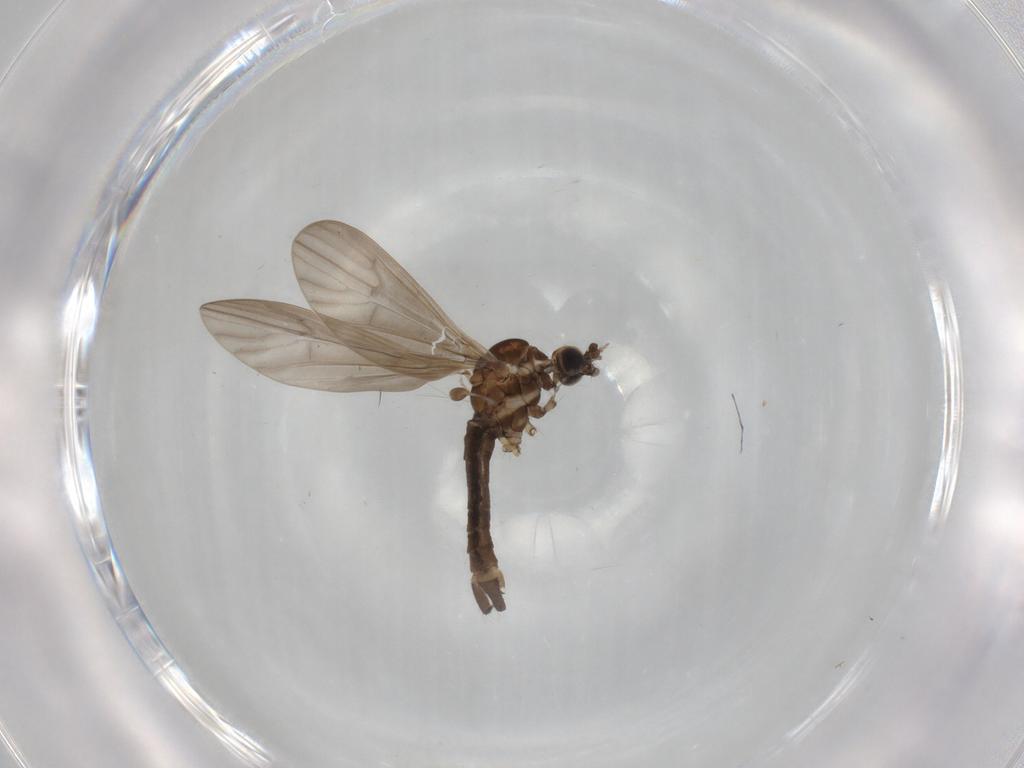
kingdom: Animalia
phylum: Arthropoda
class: Insecta
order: Diptera
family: Limoniidae
